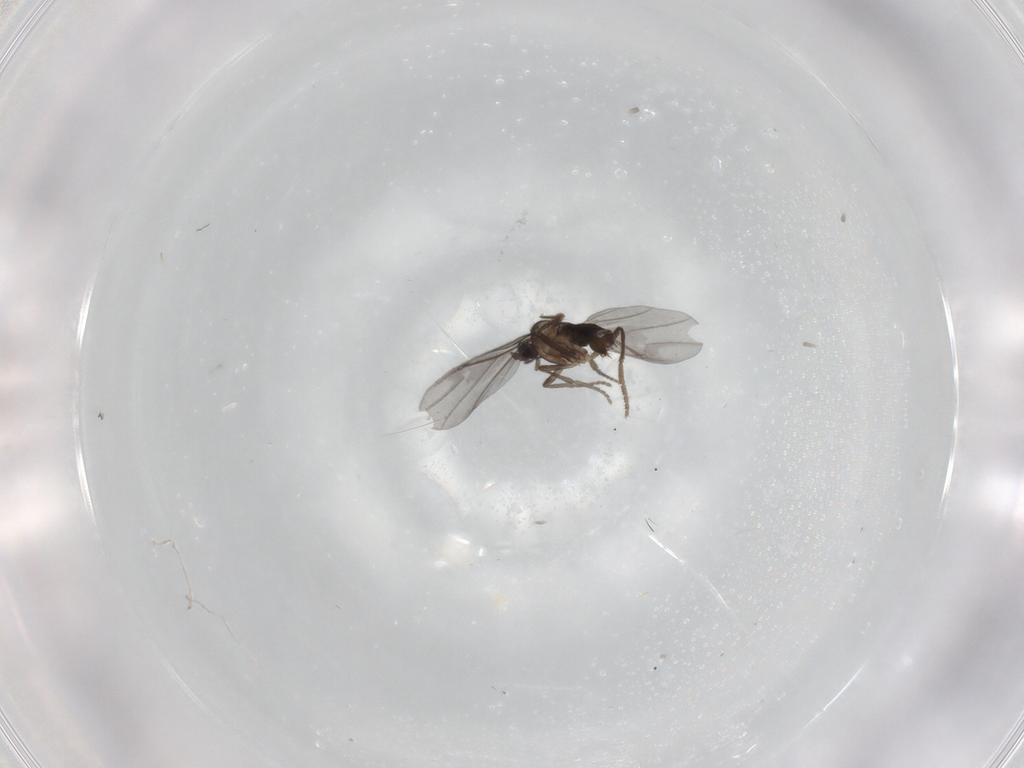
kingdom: Animalia
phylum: Arthropoda
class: Insecta
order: Diptera
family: Phoridae
